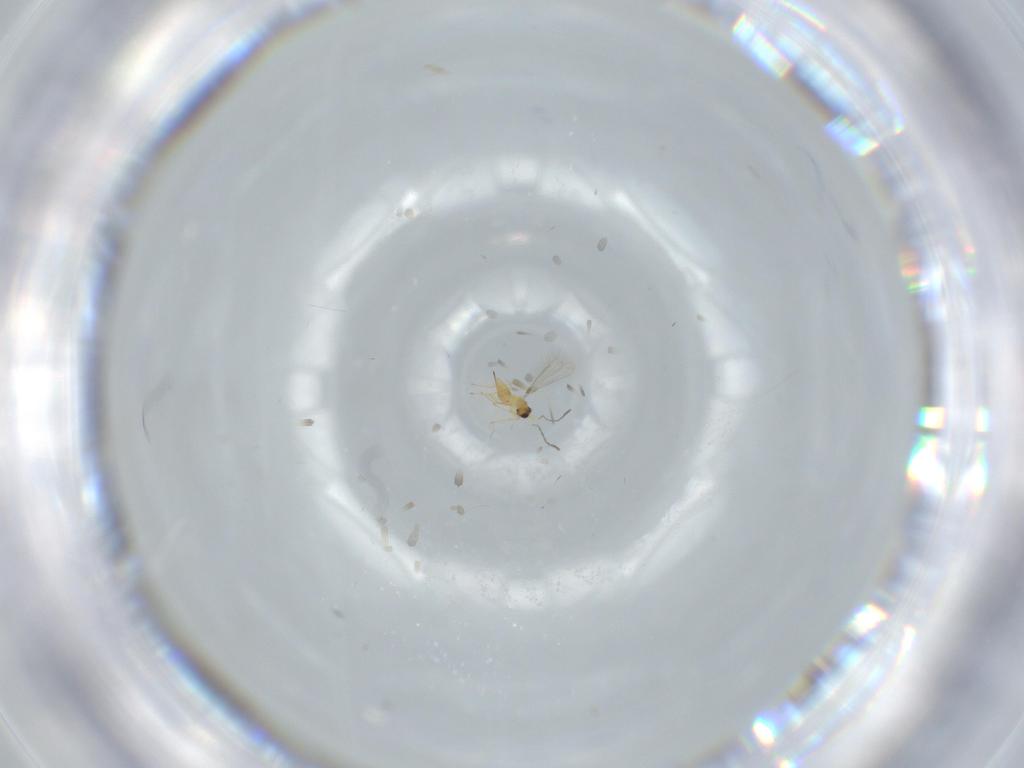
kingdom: Animalia
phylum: Arthropoda
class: Insecta
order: Hymenoptera
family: Mymaridae
